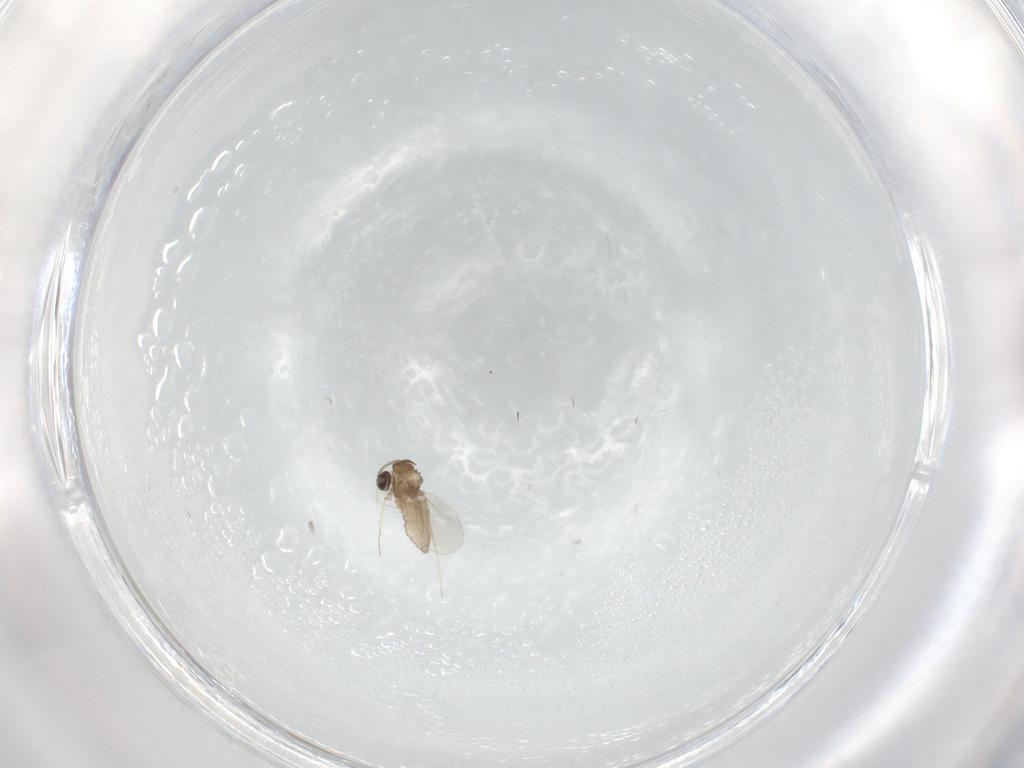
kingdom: Animalia
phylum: Arthropoda
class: Insecta
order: Diptera
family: Cecidomyiidae
